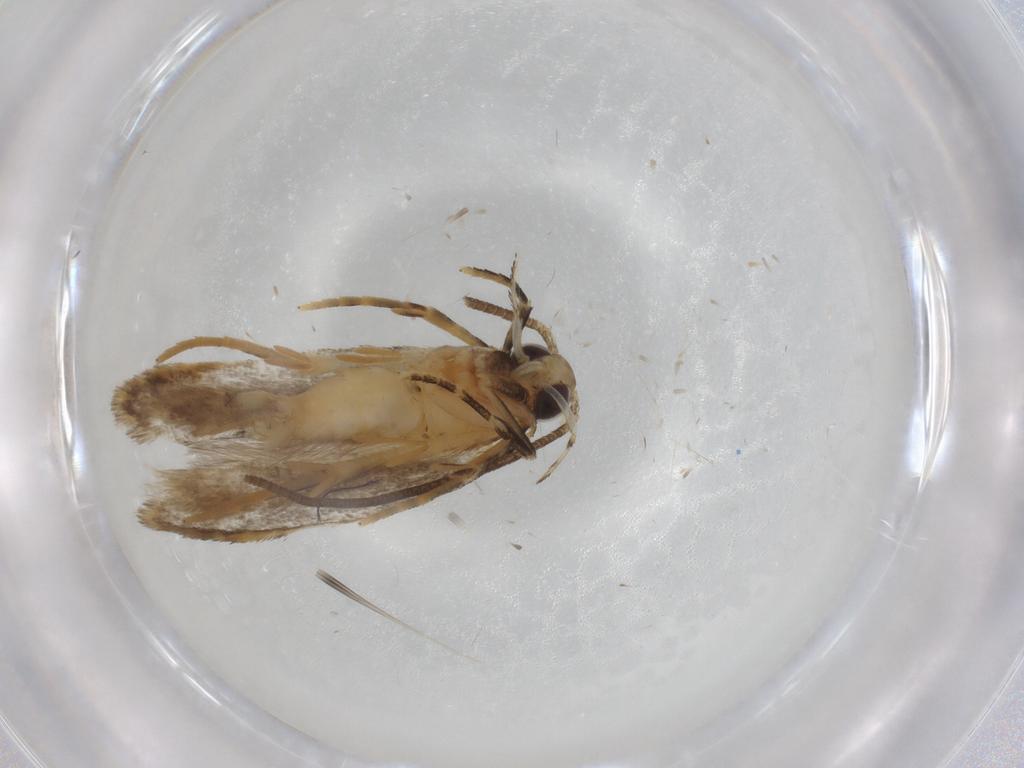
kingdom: Animalia
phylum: Arthropoda
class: Insecta
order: Lepidoptera
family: Autostichidae
